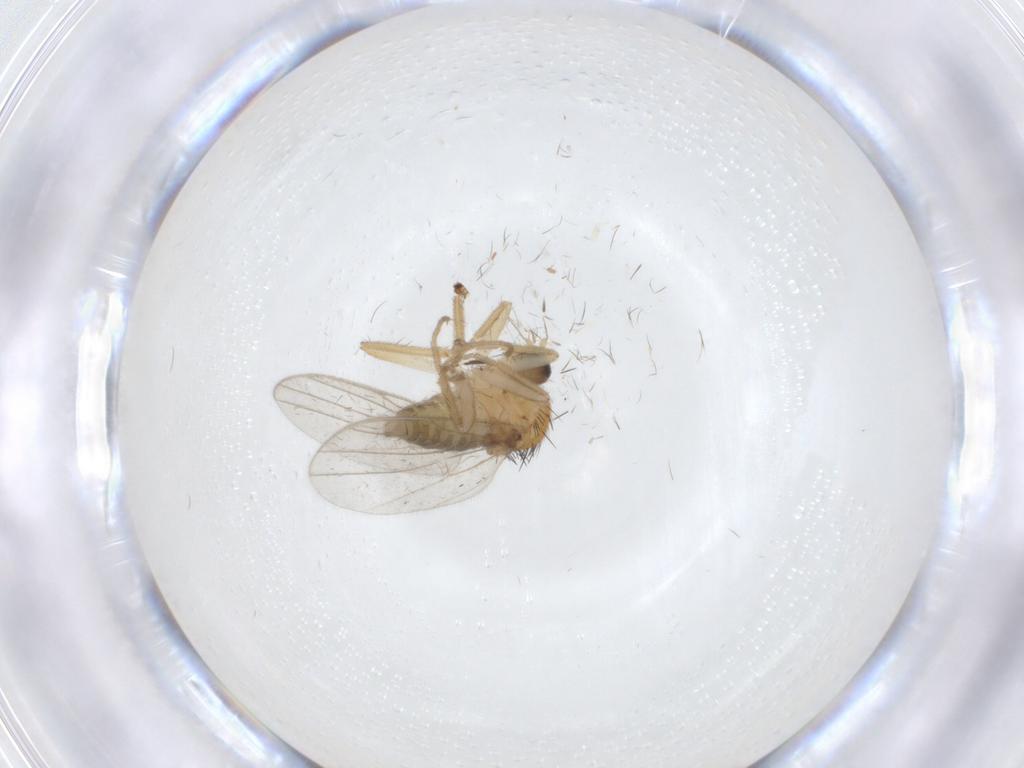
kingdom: Animalia
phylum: Arthropoda
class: Insecta
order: Diptera
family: Hybotidae
